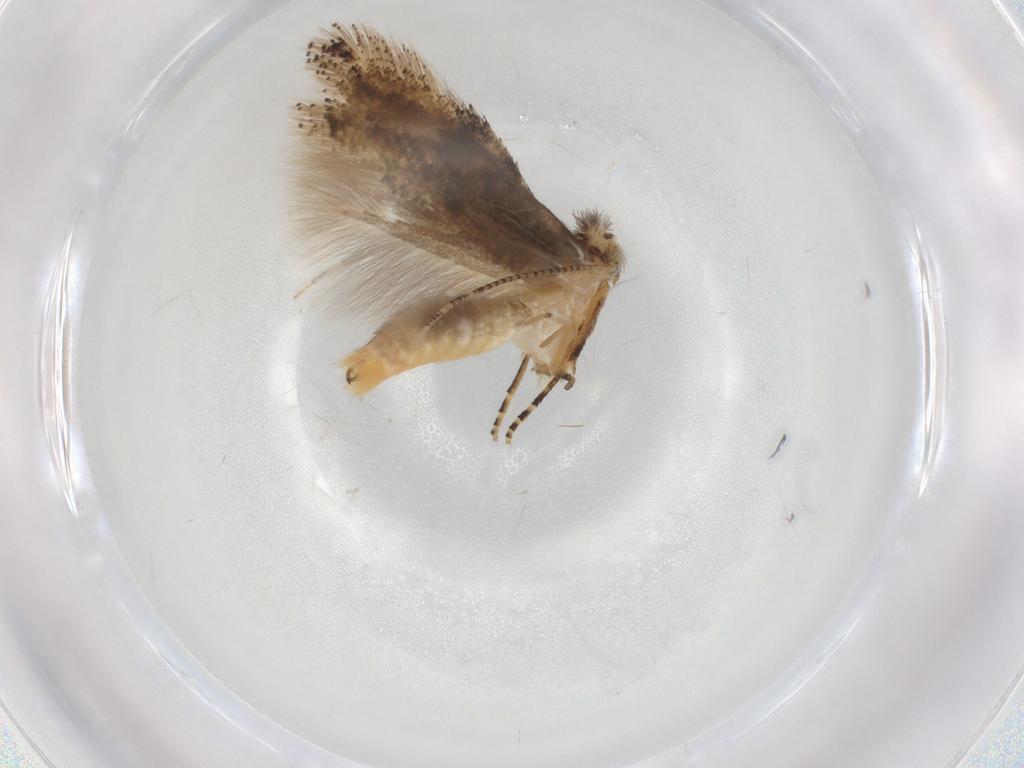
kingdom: Animalia
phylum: Arthropoda
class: Insecta
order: Lepidoptera
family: Bucculatricidae
